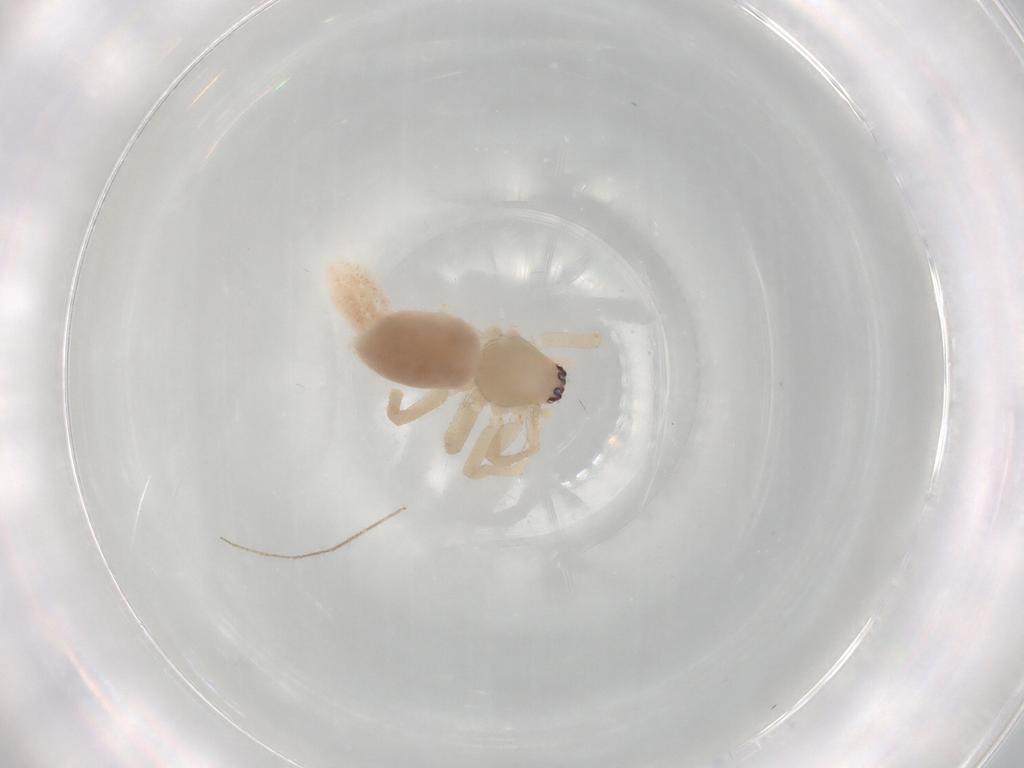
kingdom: Animalia
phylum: Arthropoda
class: Arachnida
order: Araneae
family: Clubionidae
